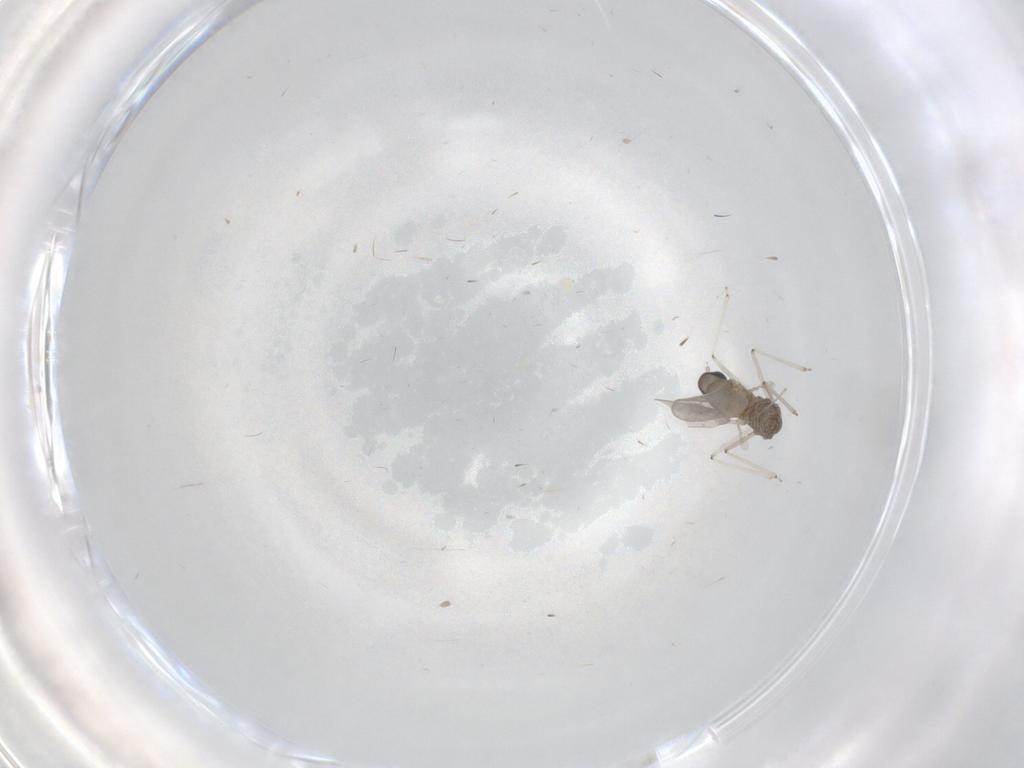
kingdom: Animalia
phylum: Arthropoda
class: Insecta
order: Diptera
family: Cecidomyiidae
